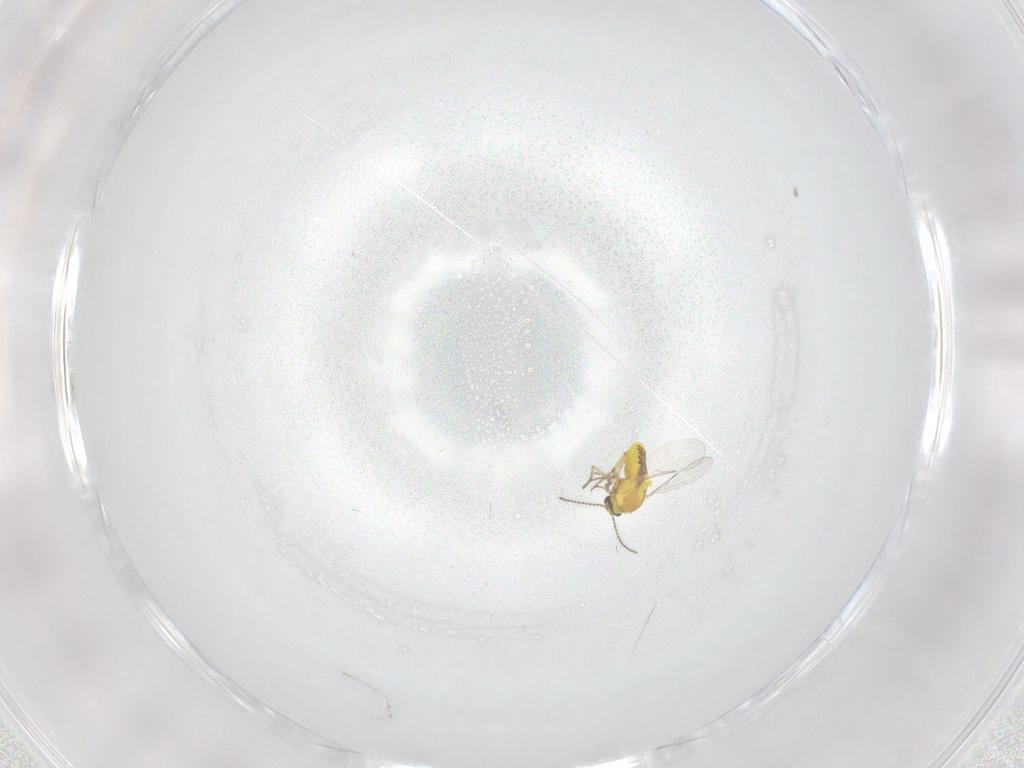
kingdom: Animalia
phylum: Arthropoda
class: Insecta
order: Diptera
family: Ceratopogonidae
